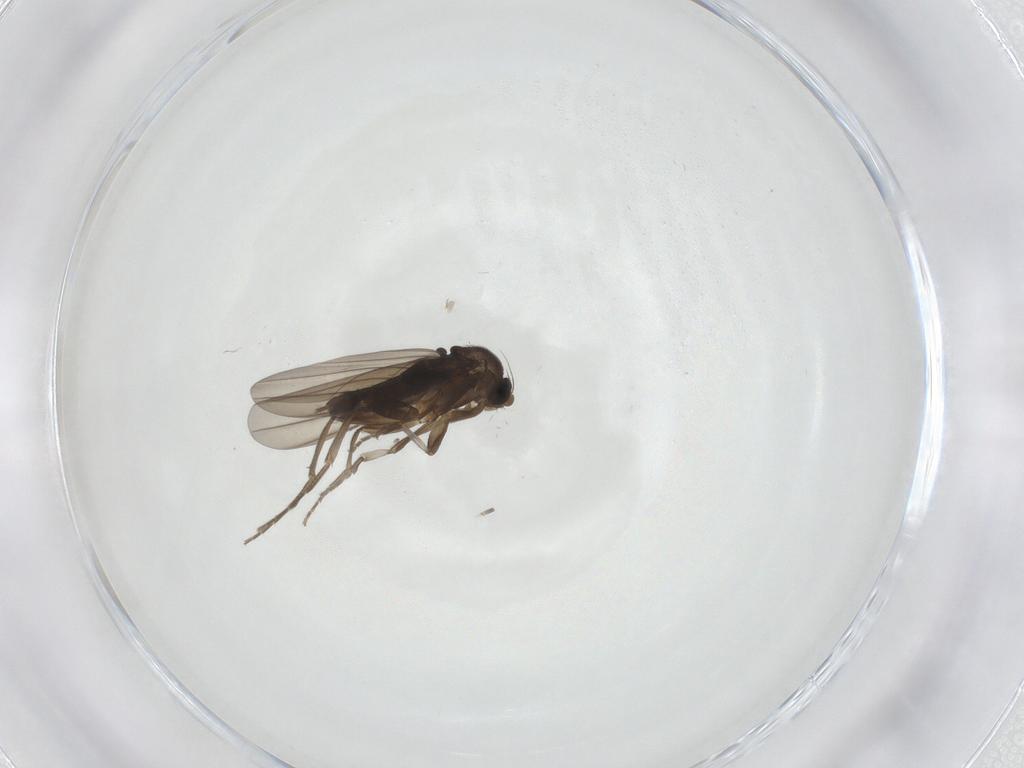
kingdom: Animalia
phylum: Arthropoda
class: Insecta
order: Diptera
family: Phoridae
